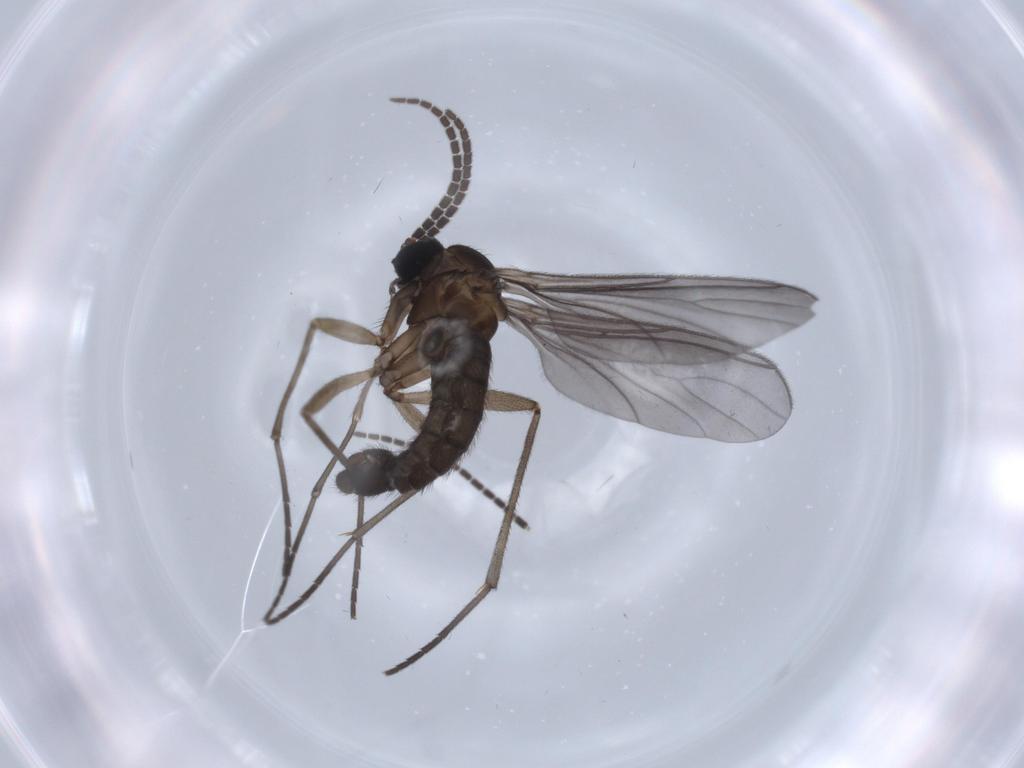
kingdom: Animalia
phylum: Arthropoda
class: Insecta
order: Diptera
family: Sciaridae
